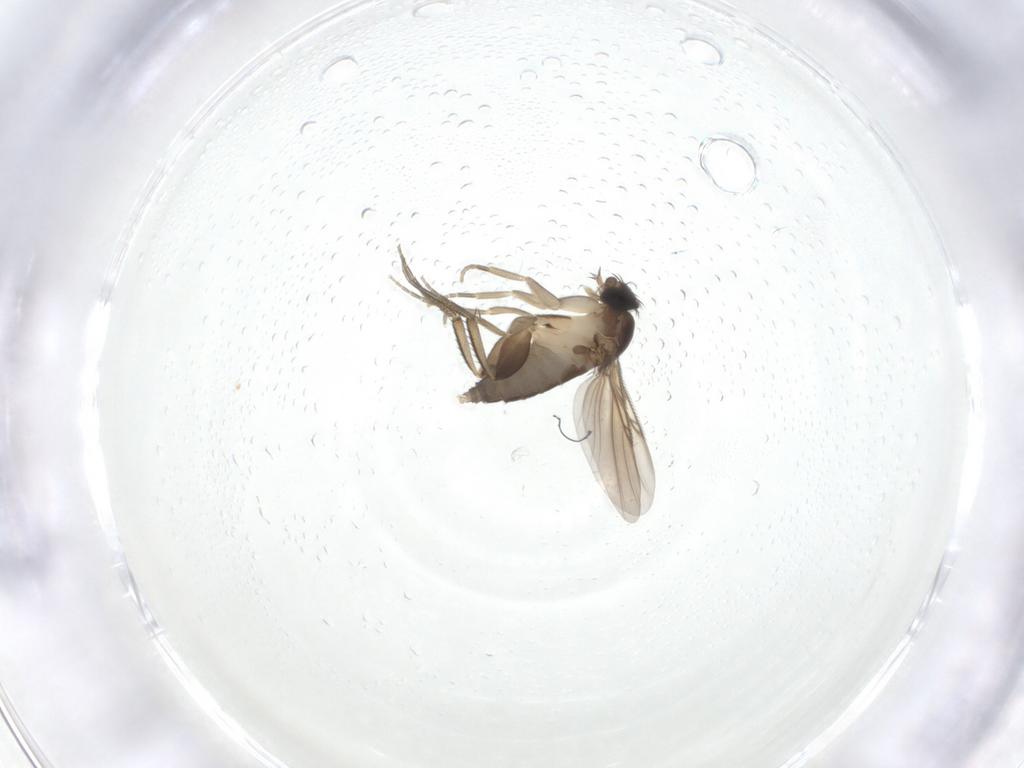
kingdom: Animalia
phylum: Arthropoda
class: Insecta
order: Diptera
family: Phoridae
